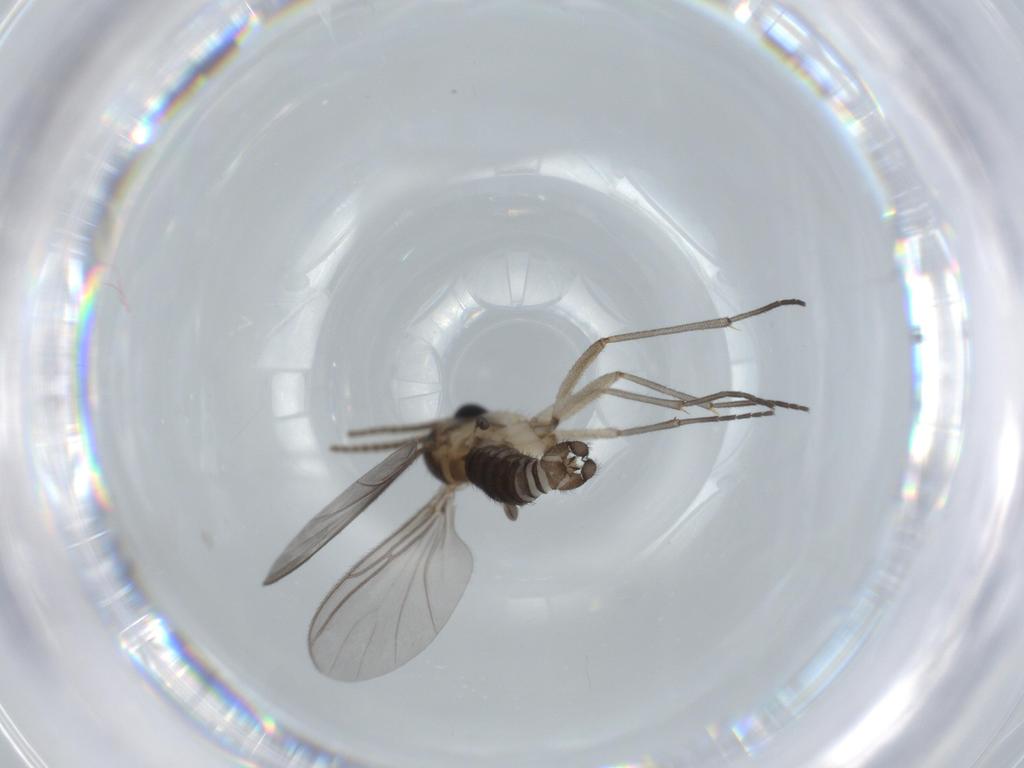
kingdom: Animalia
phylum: Arthropoda
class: Insecta
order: Diptera
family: Sciaridae
